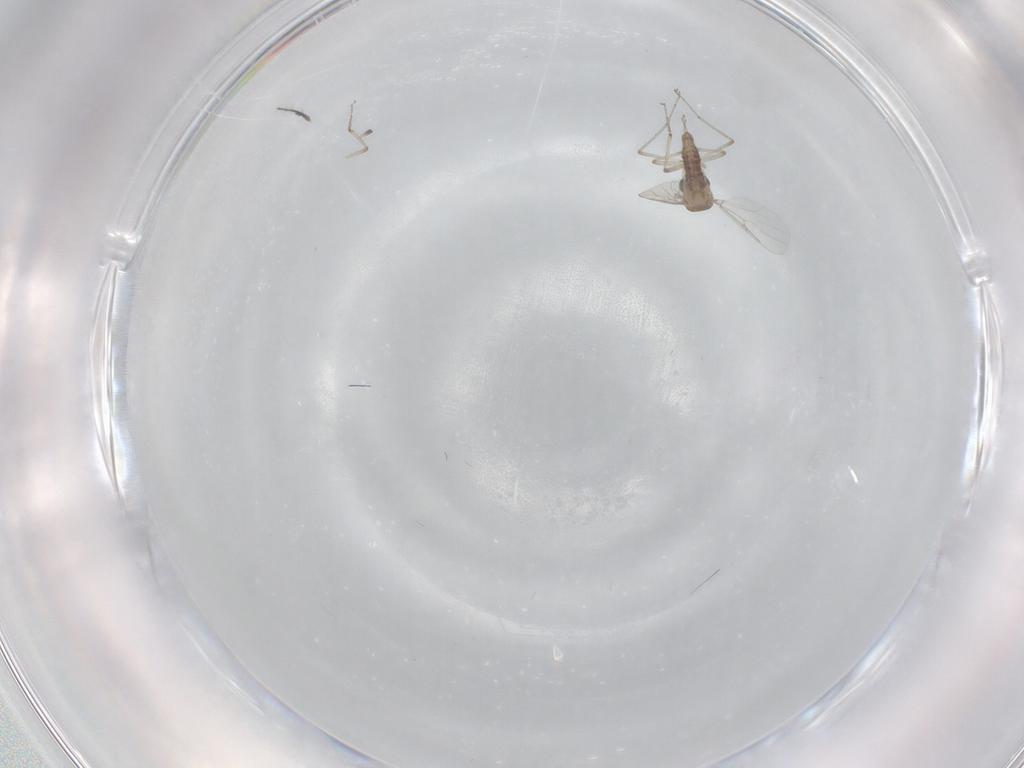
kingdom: Animalia
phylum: Arthropoda
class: Insecta
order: Diptera
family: Ceratopogonidae
